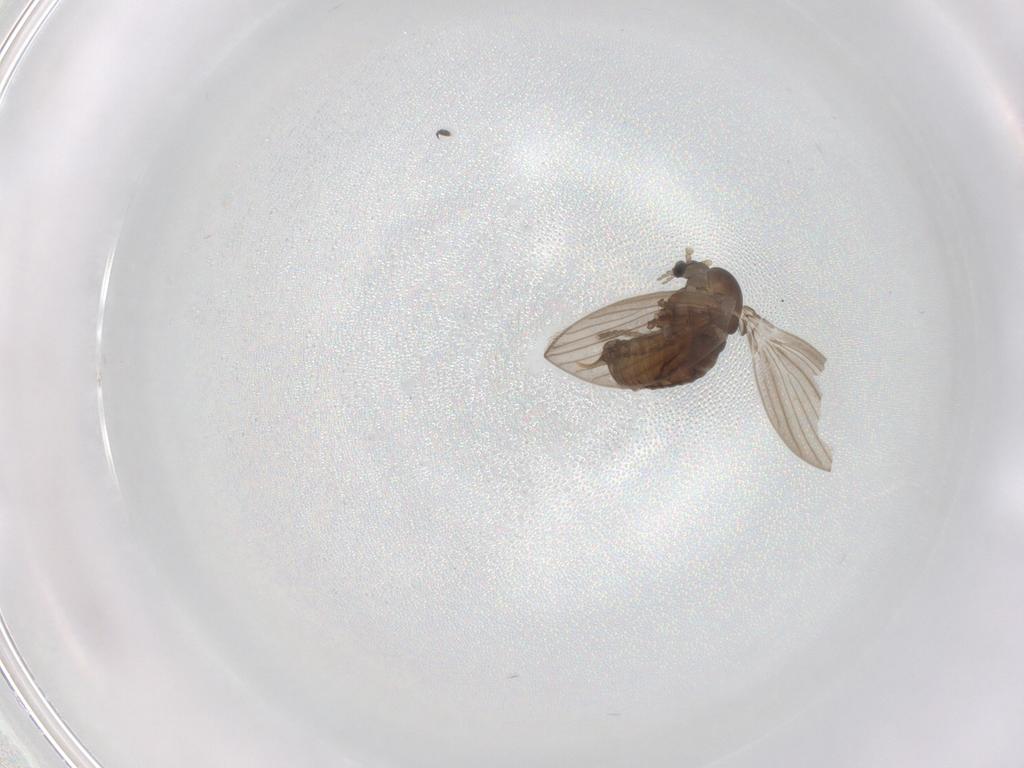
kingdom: Animalia
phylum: Arthropoda
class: Insecta
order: Diptera
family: Psychodidae
